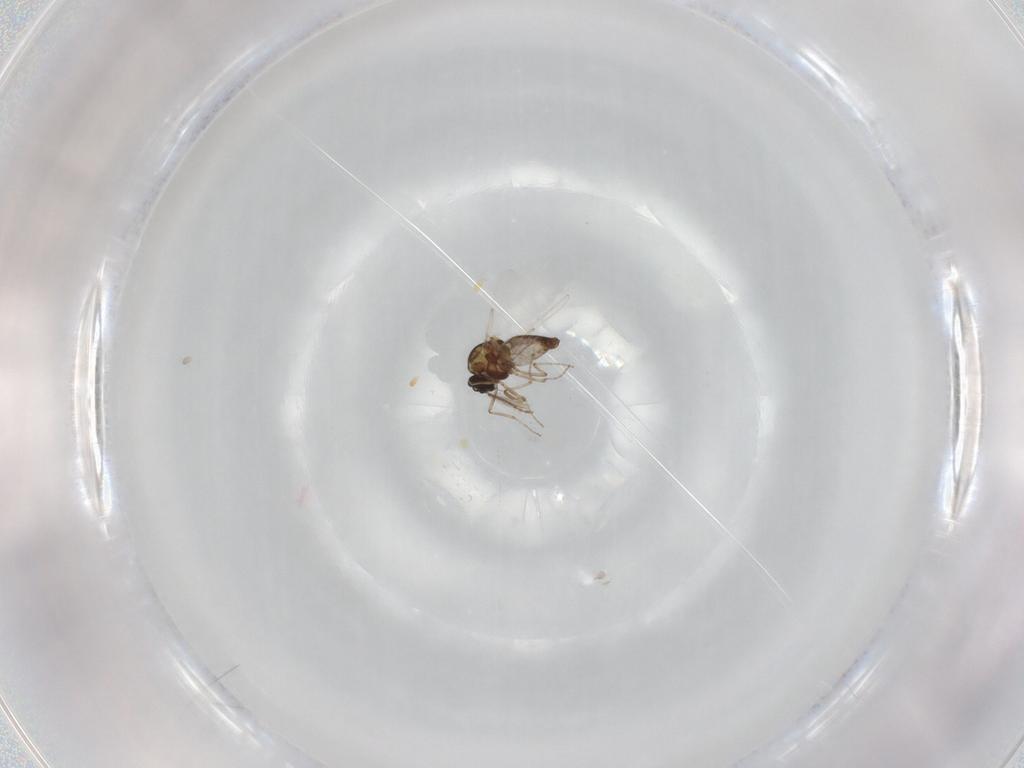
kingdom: Animalia
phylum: Arthropoda
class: Insecta
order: Diptera
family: Ceratopogonidae
